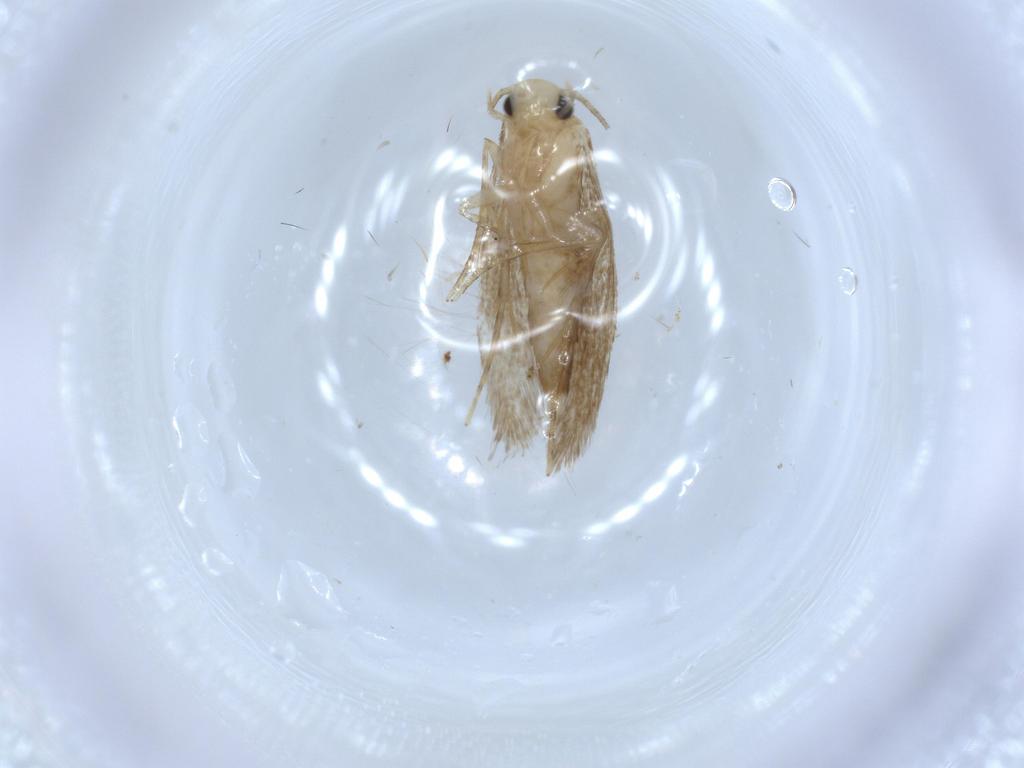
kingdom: Animalia
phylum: Arthropoda
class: Insecta
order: Lepidoptera
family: Tineidae
